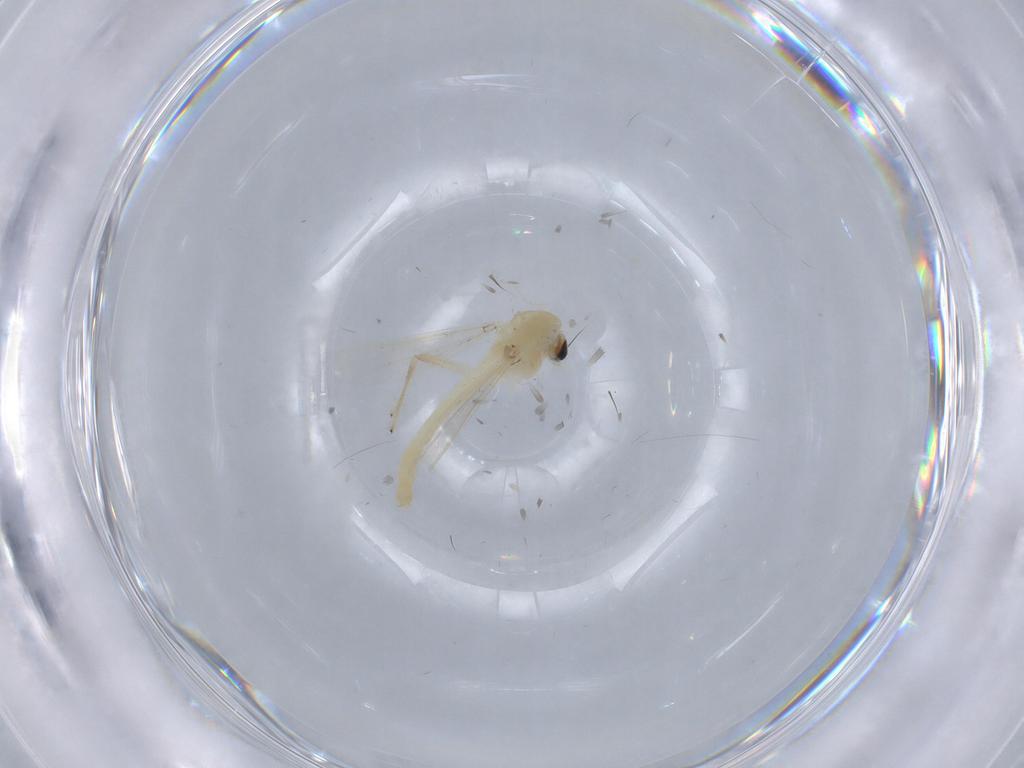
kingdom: Animalia
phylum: Arthropoda
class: Insecta
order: Diptera
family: Chironomidae
